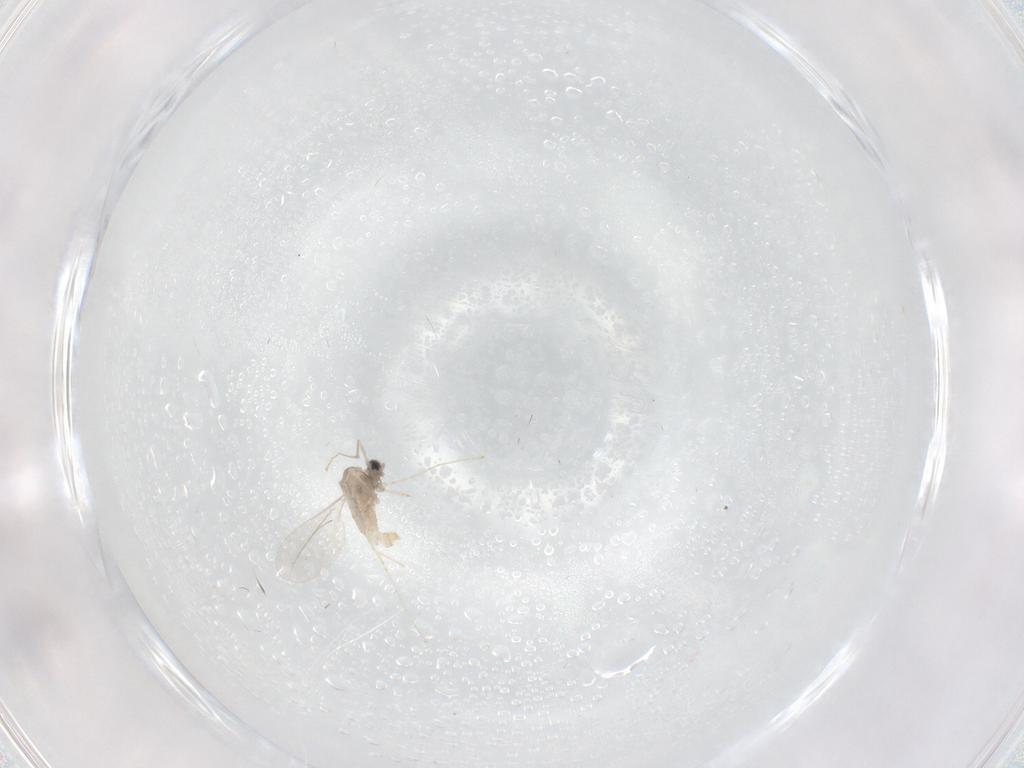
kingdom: Animalia
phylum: Arthropoda
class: Insecta
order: Diptera
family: Cecidomyiidae
